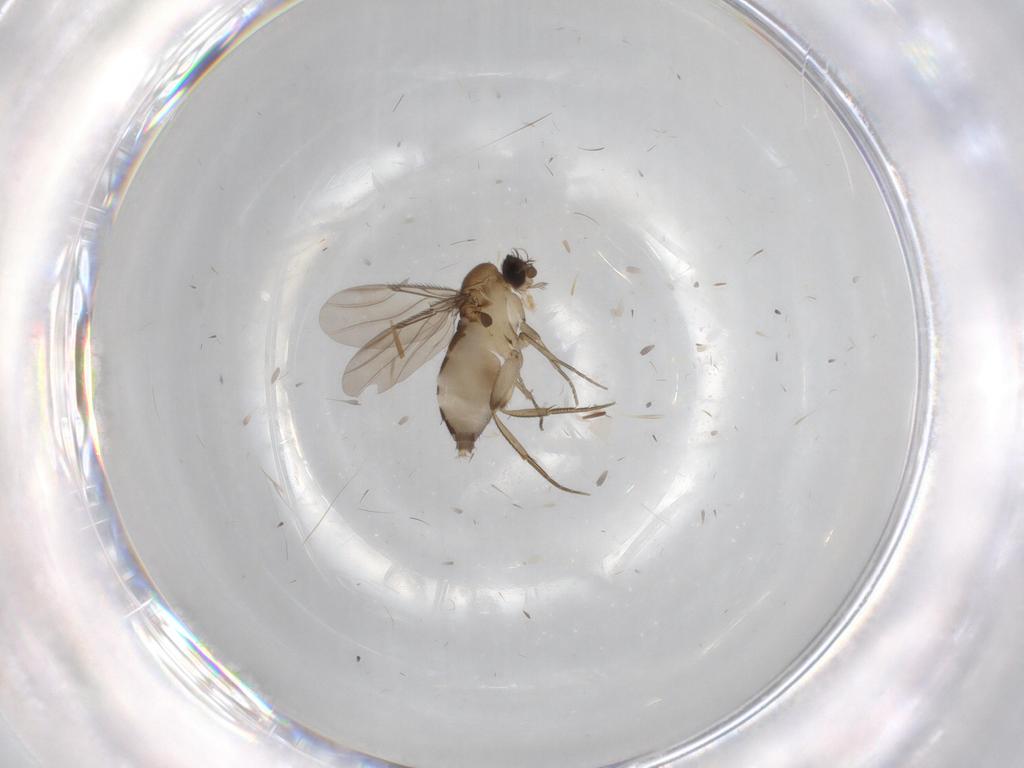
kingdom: Animalia
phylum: Arthropoda
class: Insecta
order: Diptera
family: Phoridae
